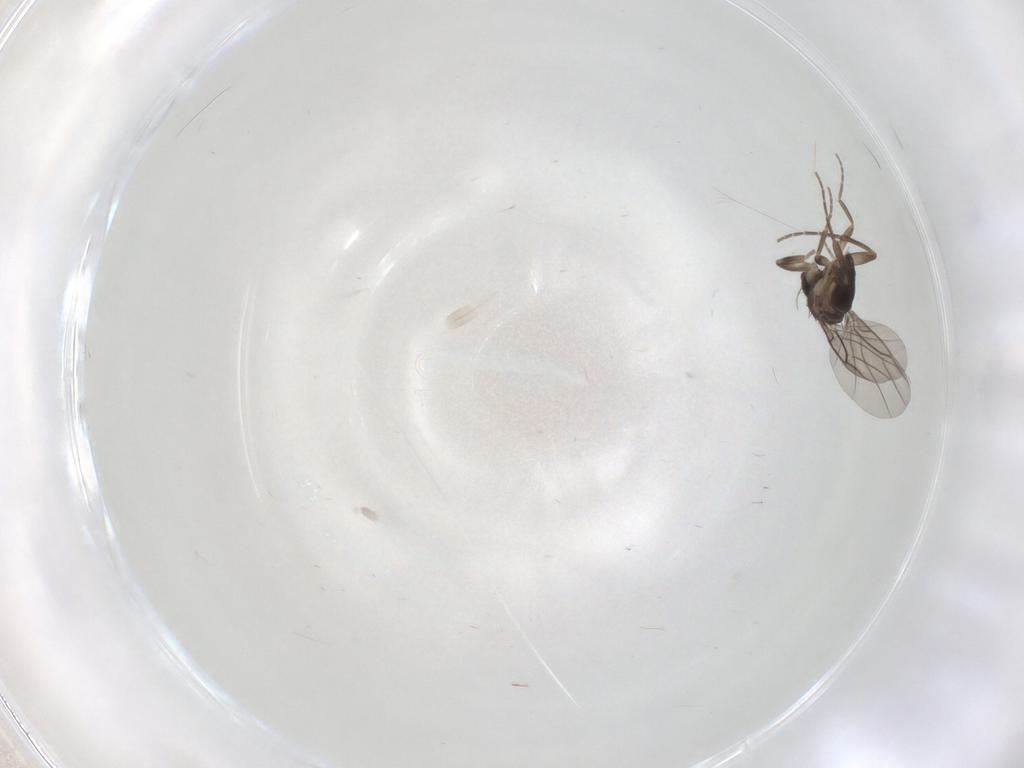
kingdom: Animalia
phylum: Arthropoda
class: Insecta
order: Diptera
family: Phoridae
